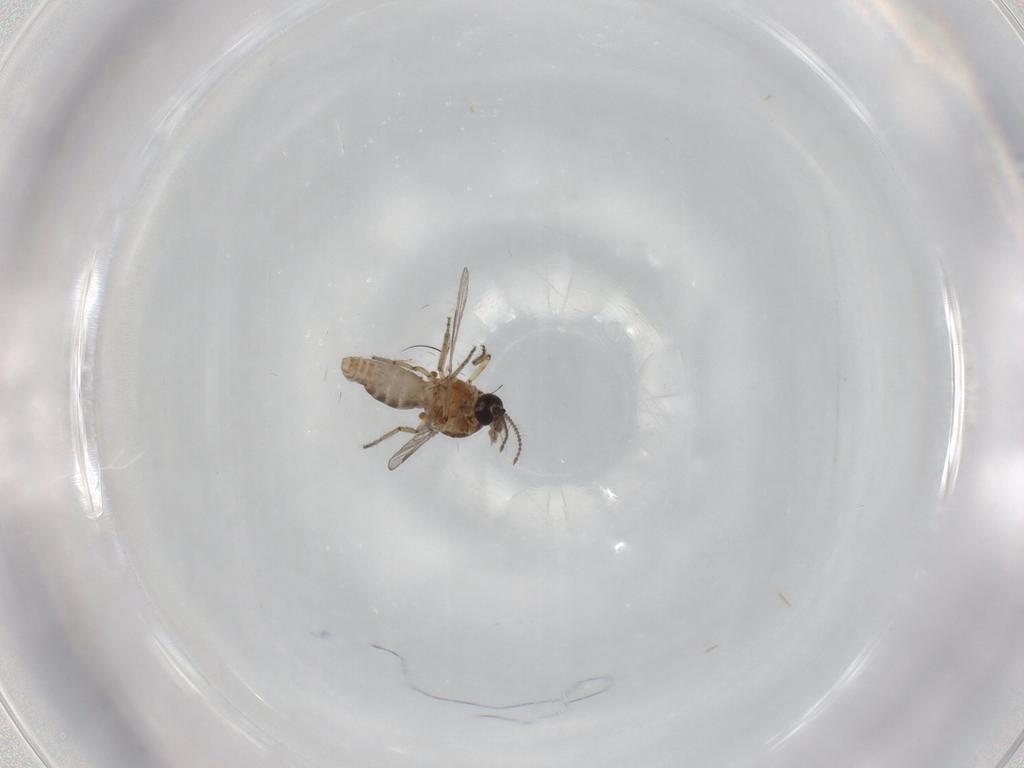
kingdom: Animalia
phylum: Arthropoda
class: Insecta
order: Diptera
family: Ceratopogonidae
